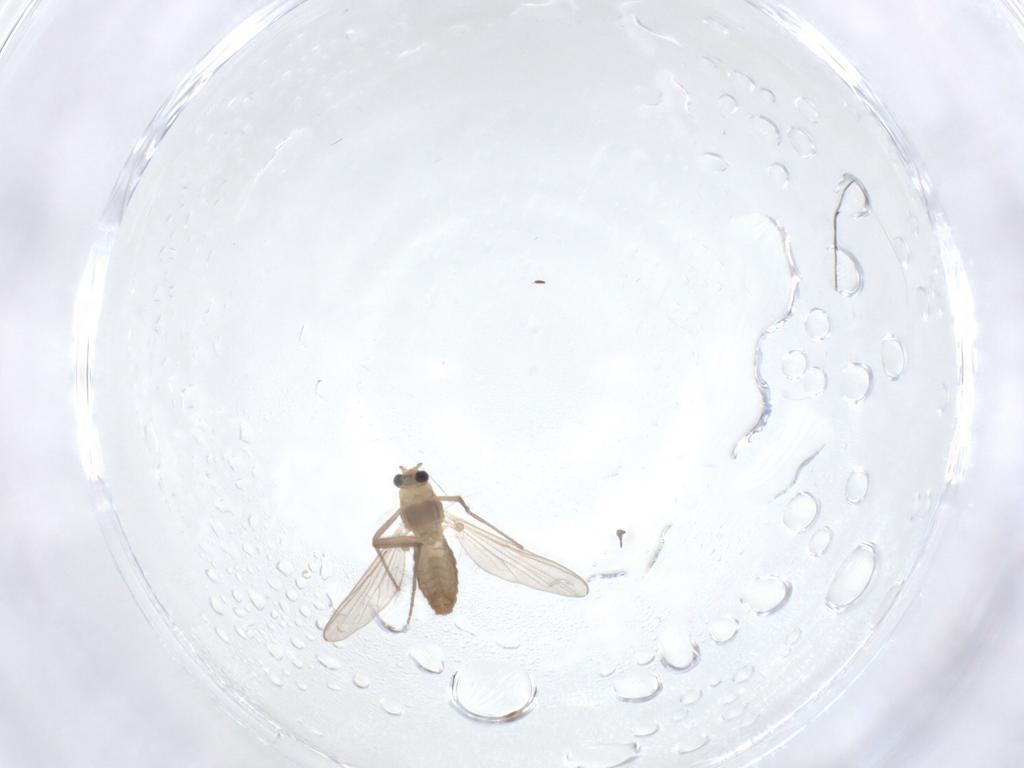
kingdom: Animalia
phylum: Arthropoda
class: Insecta
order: Diptera
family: Chironomidae
